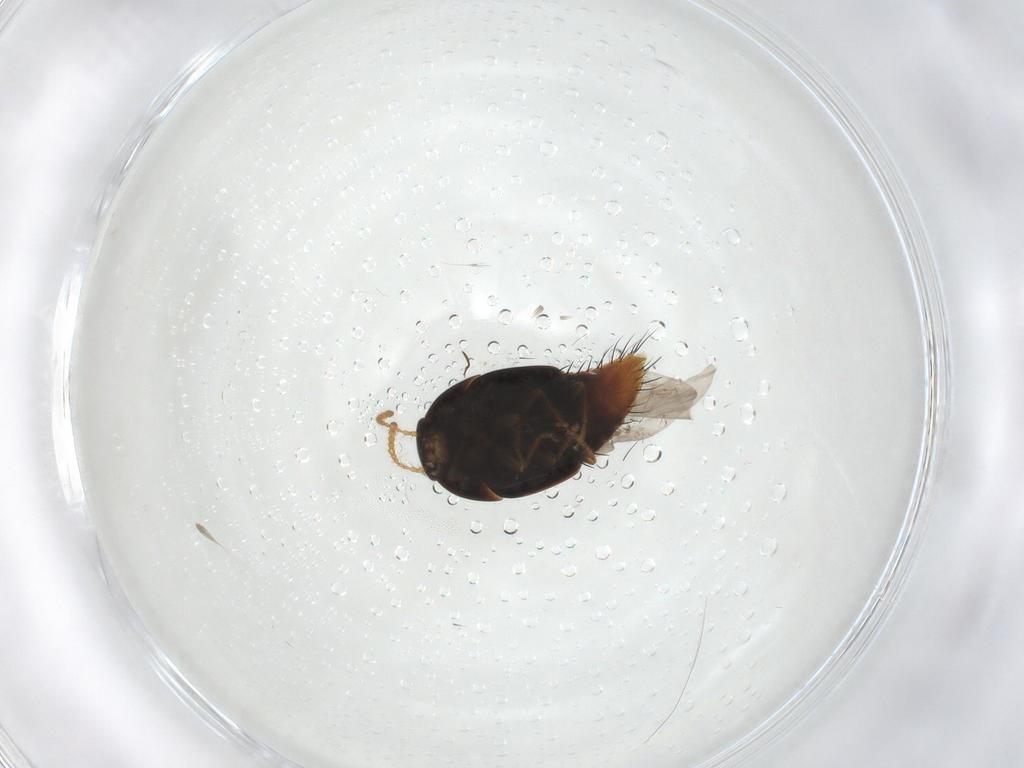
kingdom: Animalia
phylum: Arthropoda
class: Insecta
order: Coleoptera
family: Staphylinidae
